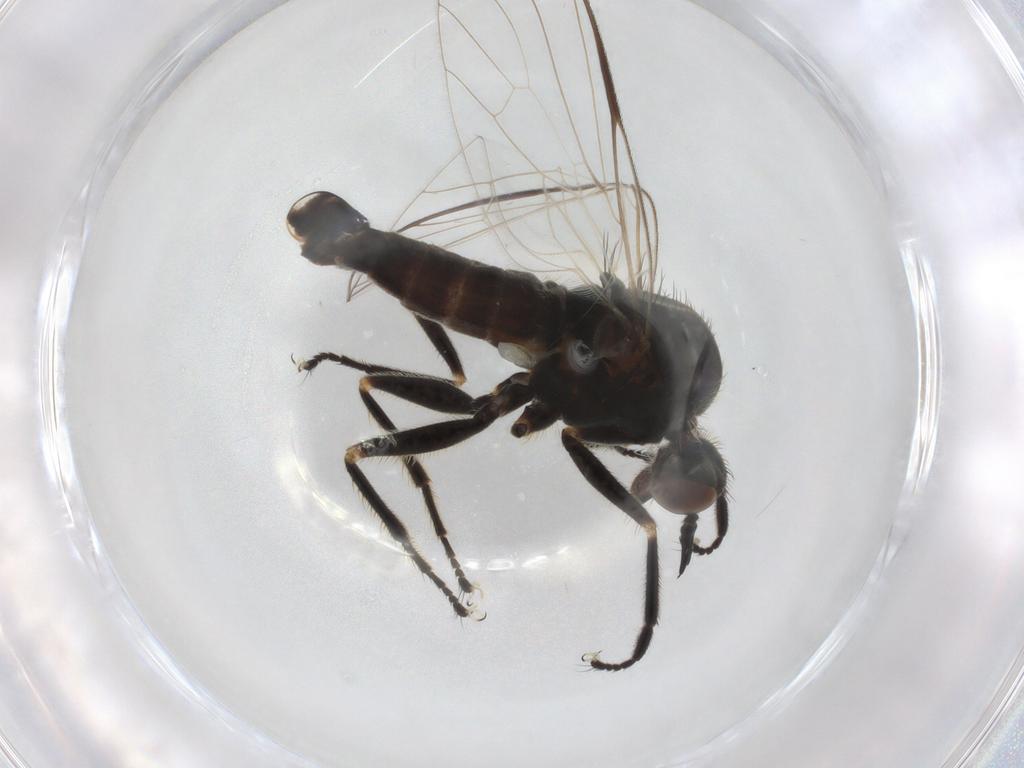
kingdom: Animalia
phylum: Arthropoda
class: Insecta
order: Diptera
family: Empididae
